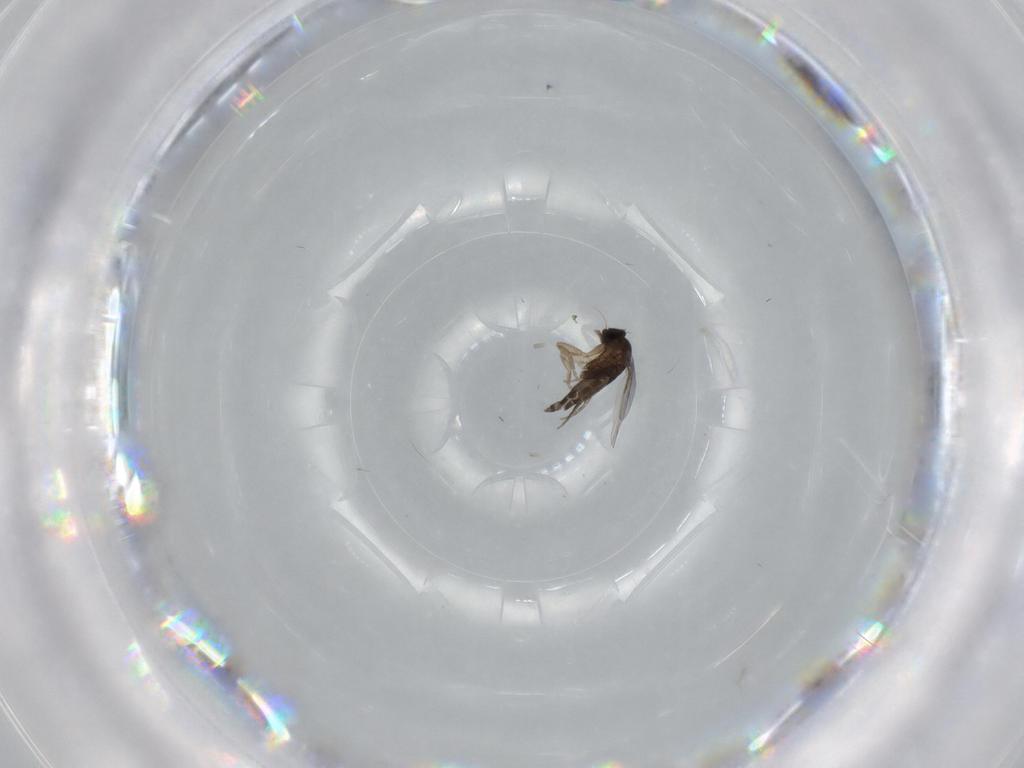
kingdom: Animalia
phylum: Arthropoda
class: Insecta
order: Diptera
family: Phoridae
